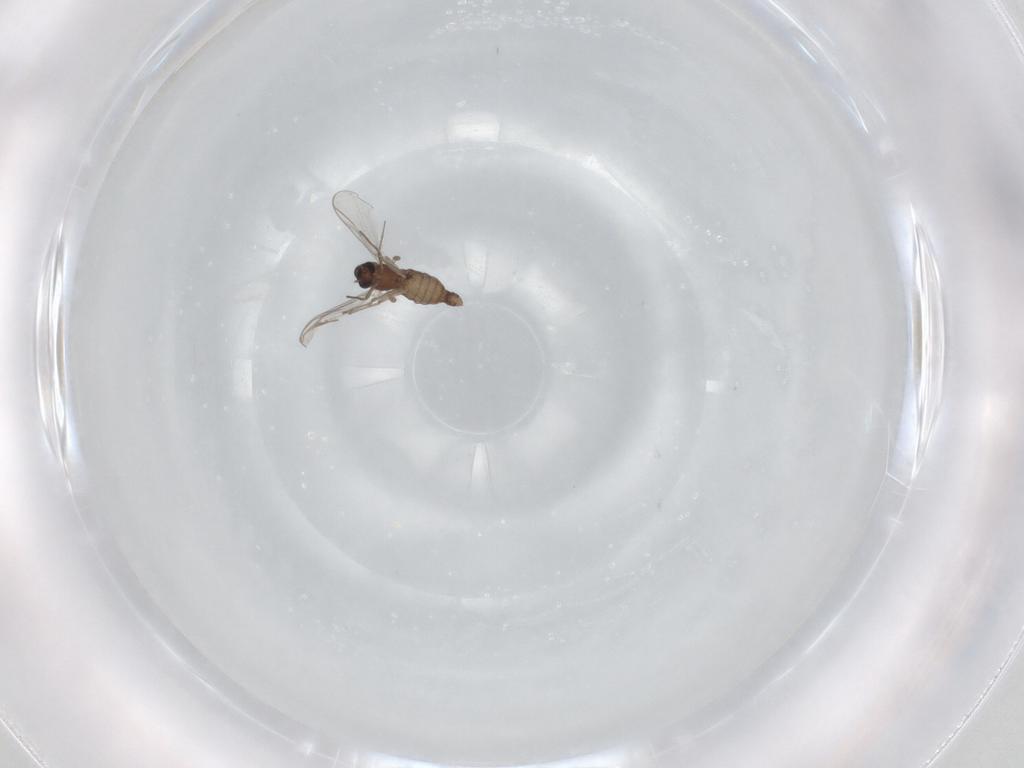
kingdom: Animalia
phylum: Arthropoda
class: Insecta
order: Diptera
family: Chironomidae
